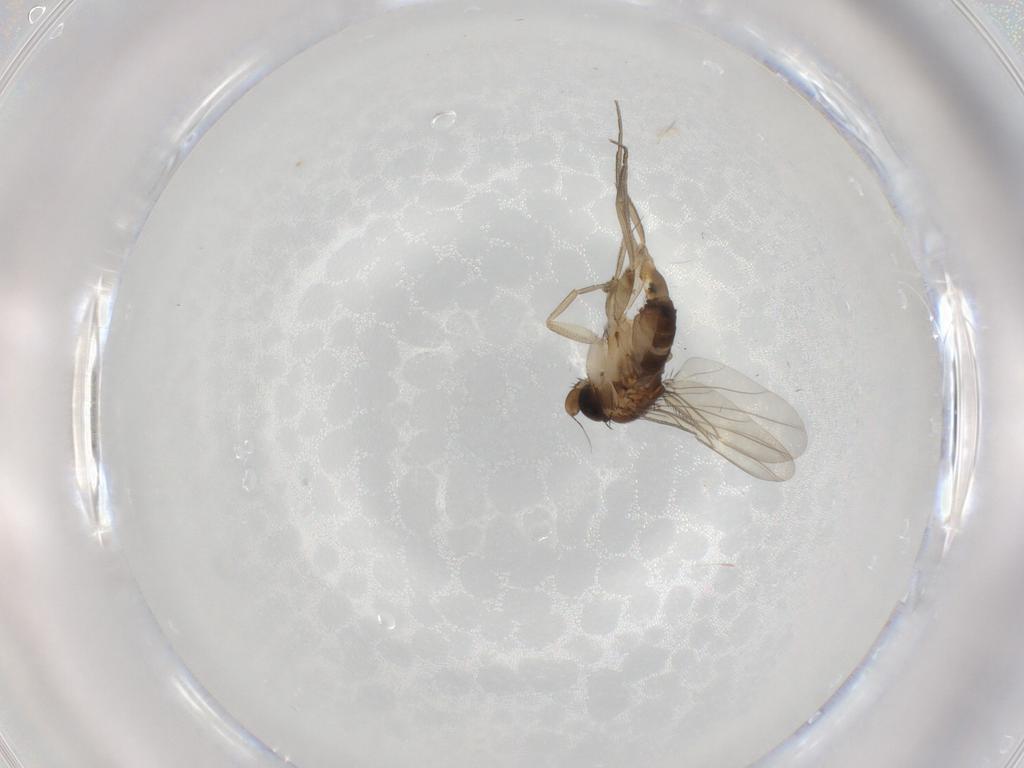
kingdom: Animalia
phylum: Arthropoda
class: Insecta
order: Diptera
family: Phoridae
